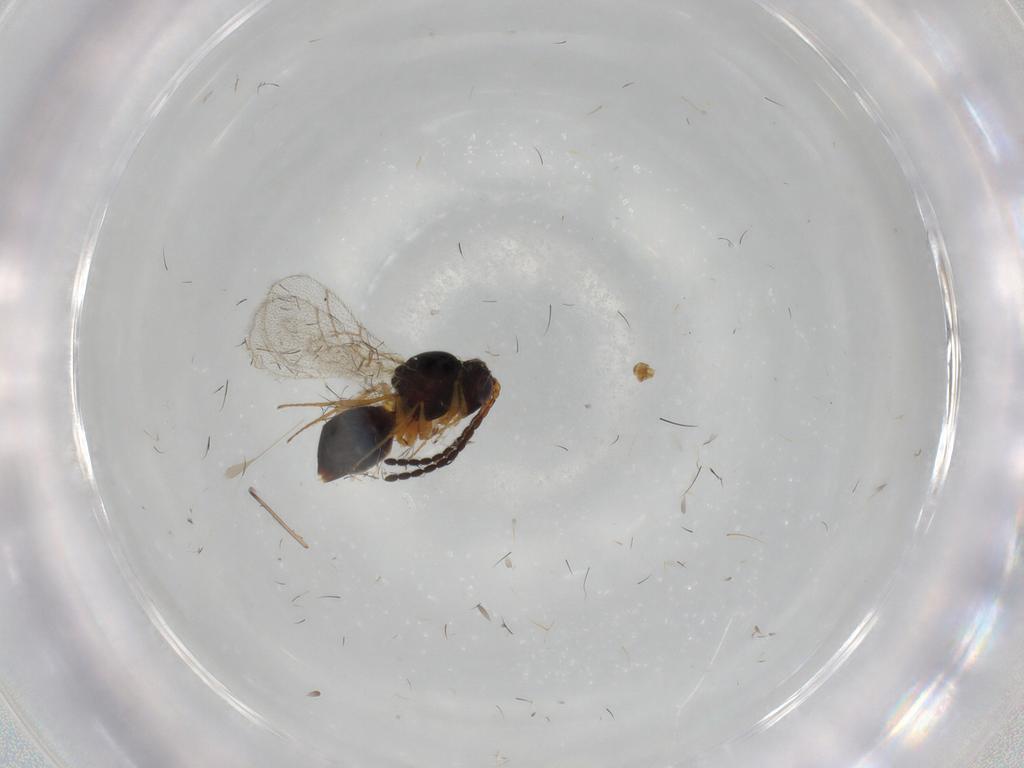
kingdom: Animalia
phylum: Arthropoda
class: Insecta
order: Hymenoptera
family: Figitidae
